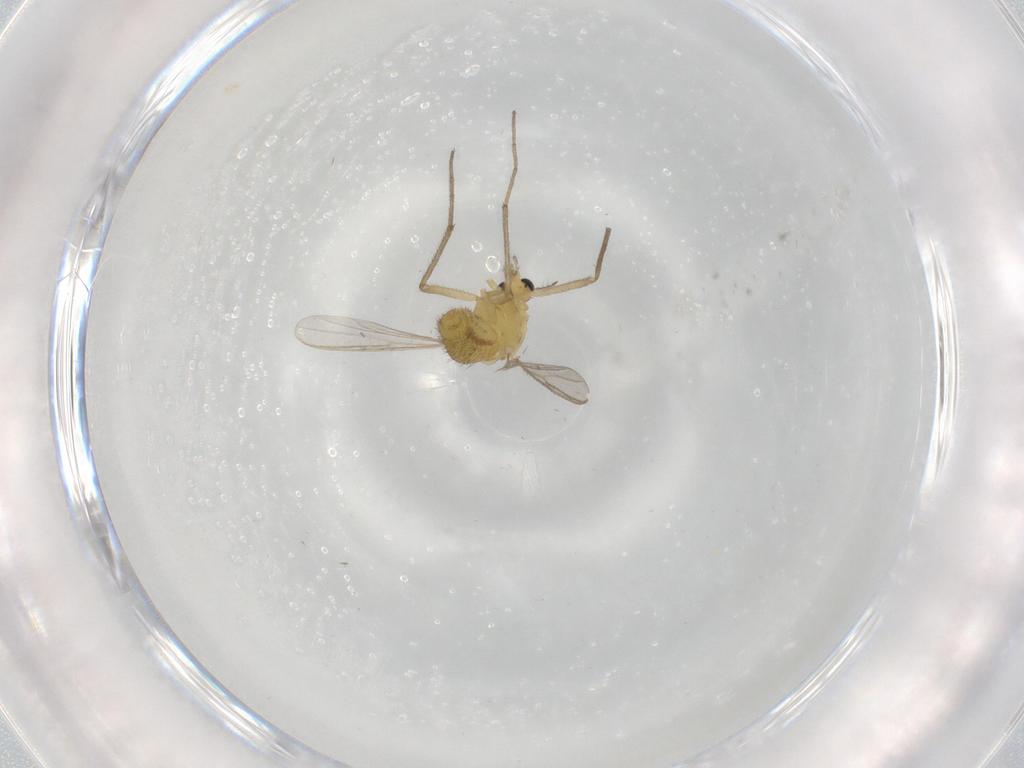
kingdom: Animalia
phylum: Arthropoda
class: Insecta
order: Diptera
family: Chironomidae
